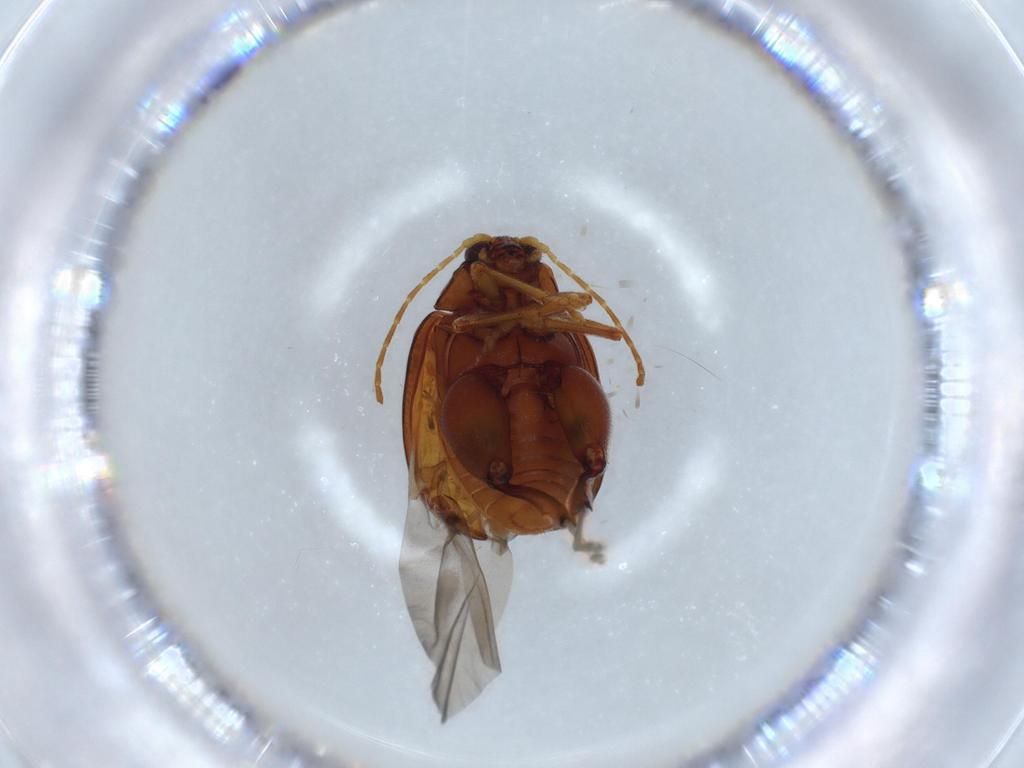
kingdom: Animalia
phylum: Arthropoda
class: Insecta
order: Coleoptera
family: Chrysomelidae
